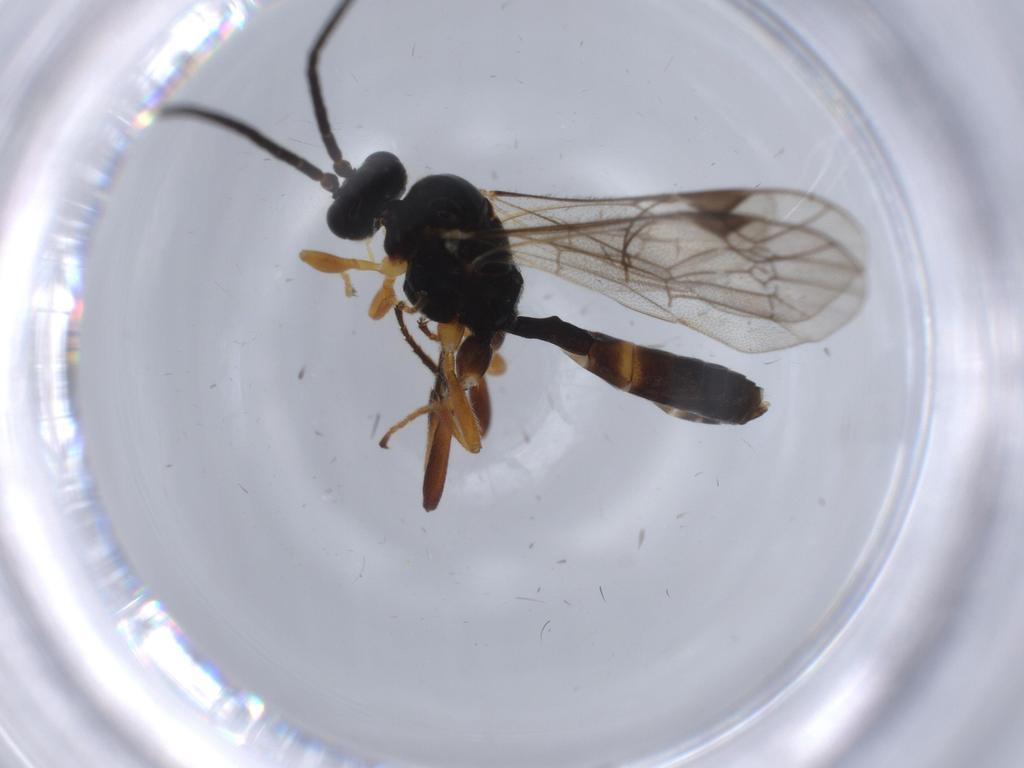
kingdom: Animalia
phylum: Arthropoda
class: Insecta
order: Hymenoptera
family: Ichneumonidae
